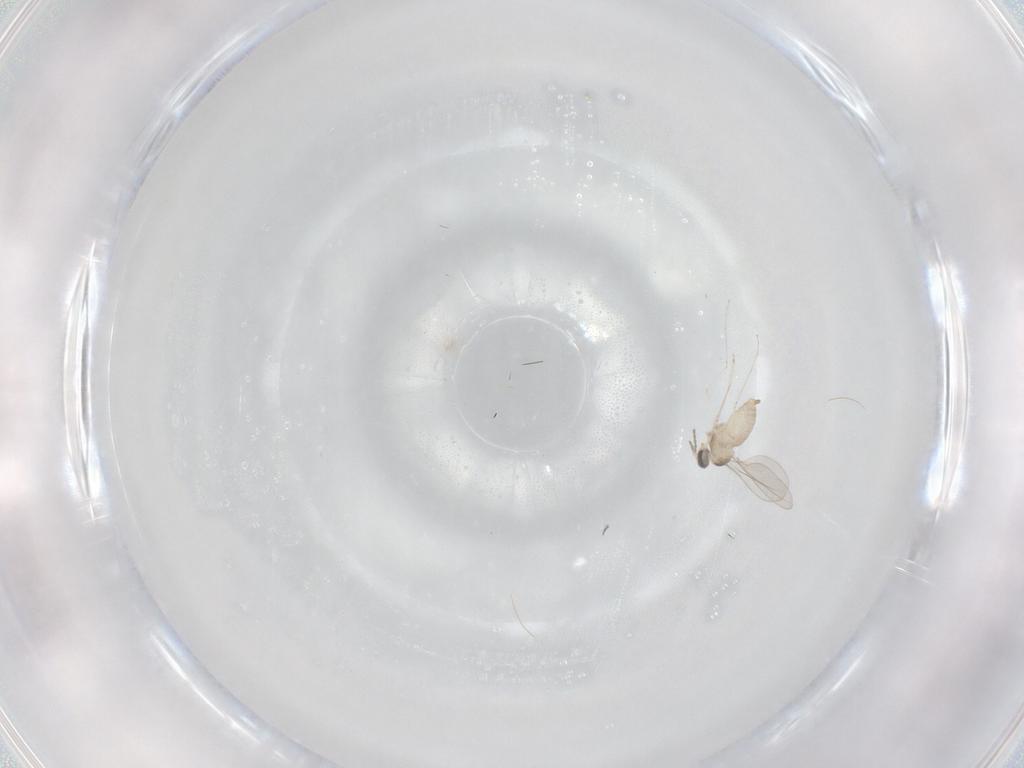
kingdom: Animalia
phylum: Arthropoda
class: Insecta
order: Diptera
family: Cecidomyiidae
